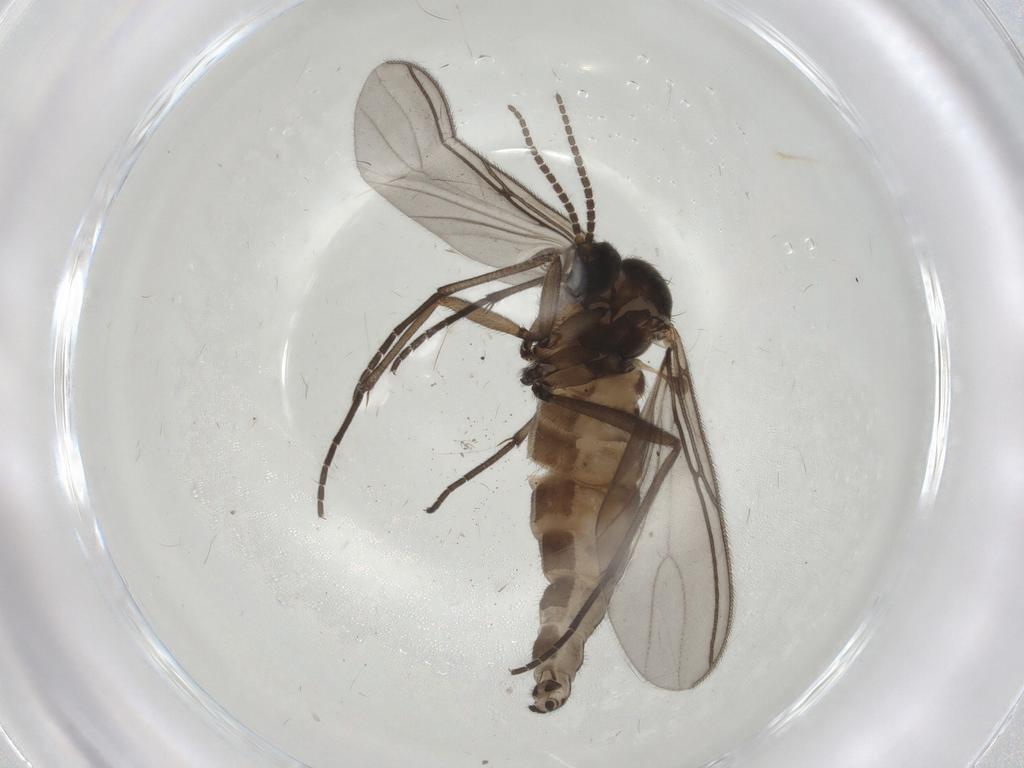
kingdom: Animalia
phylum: Arthropoda
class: Insecta
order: Diptera
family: Sciaridae
